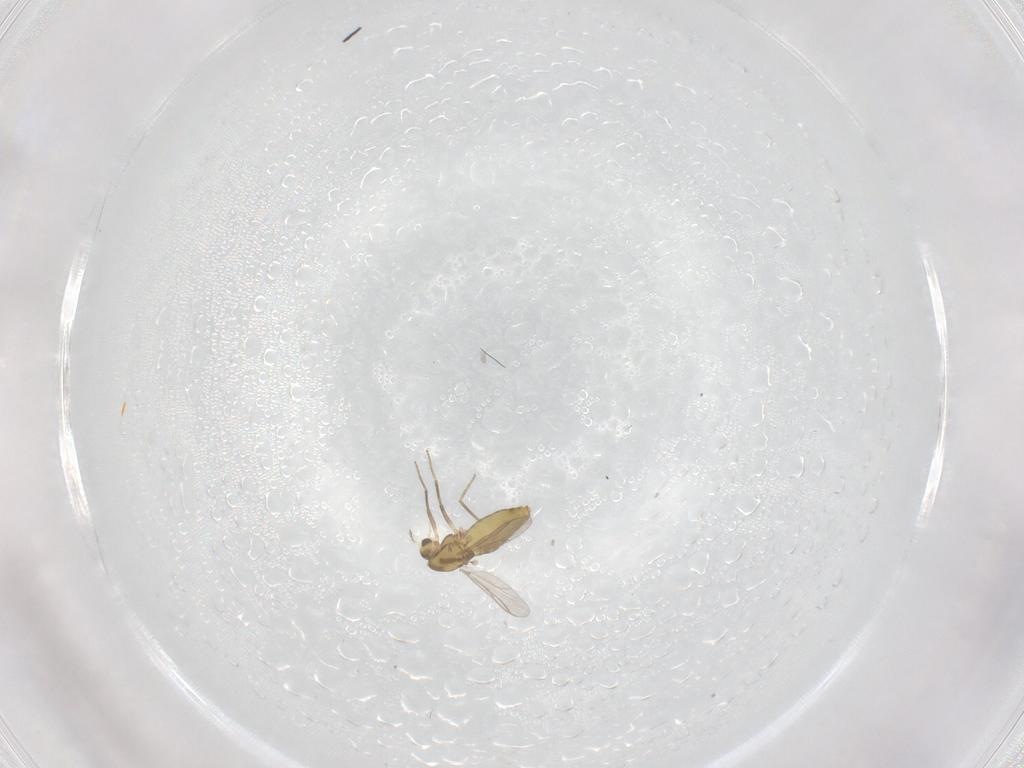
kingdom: Animalia
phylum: Arthropoda
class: Insecta
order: Diptera
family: Chironomidae
